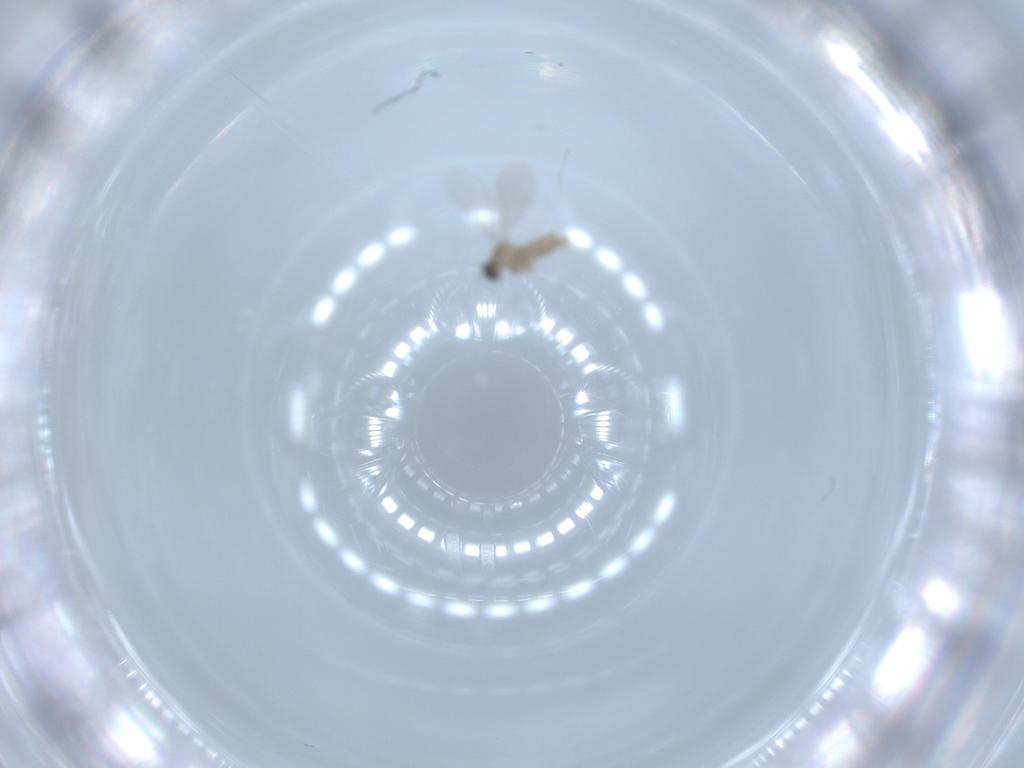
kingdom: Animalia
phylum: Arthropoda
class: Insecta
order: Diptera
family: Cecidomyiidae
